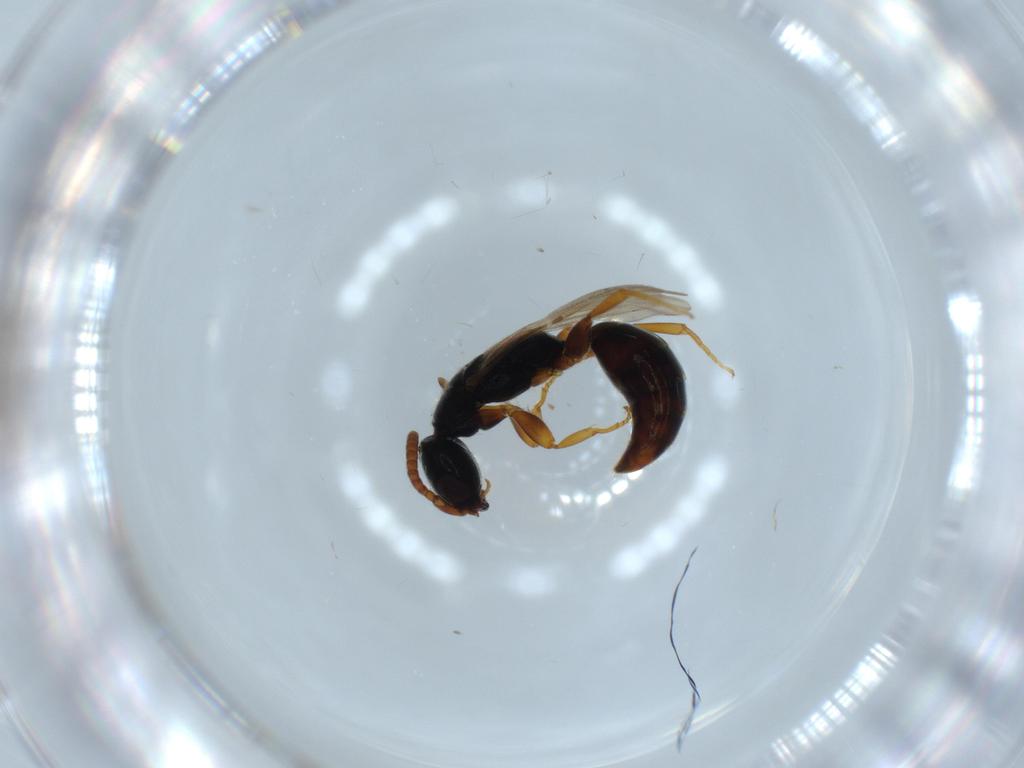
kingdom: Animalia
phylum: Arthropoda
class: Insecta
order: Hymenoptera
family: Bethylidae
